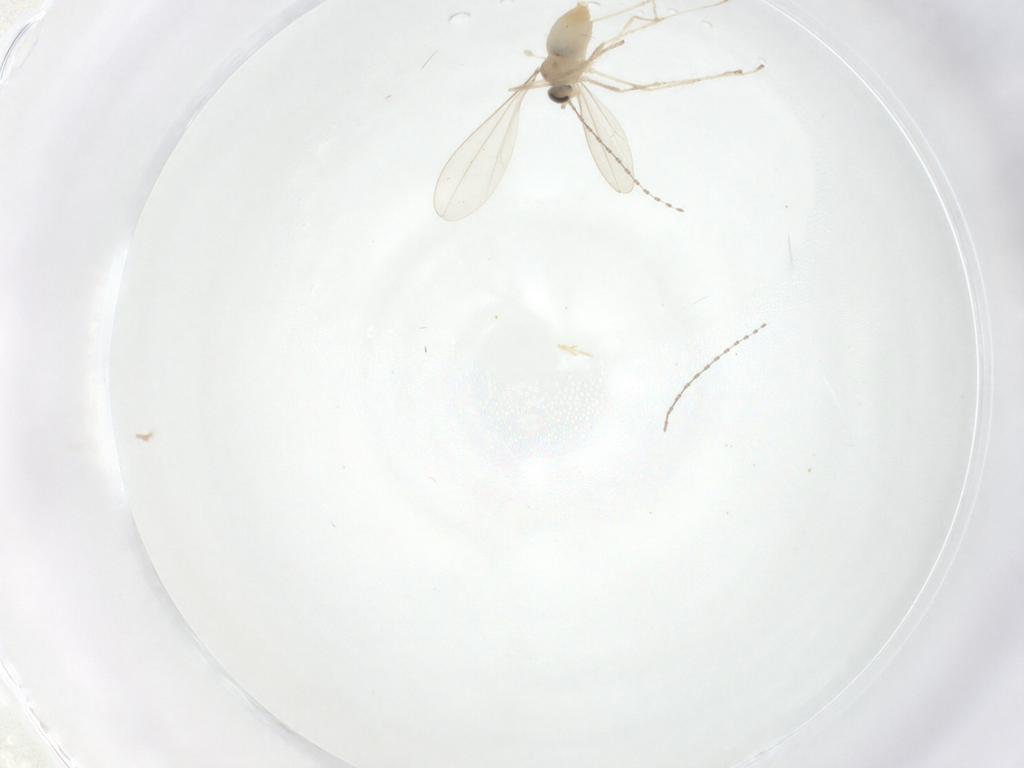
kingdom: Animalia
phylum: Arthropoda
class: Insecta
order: Diptera
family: Cecidomyiidae
